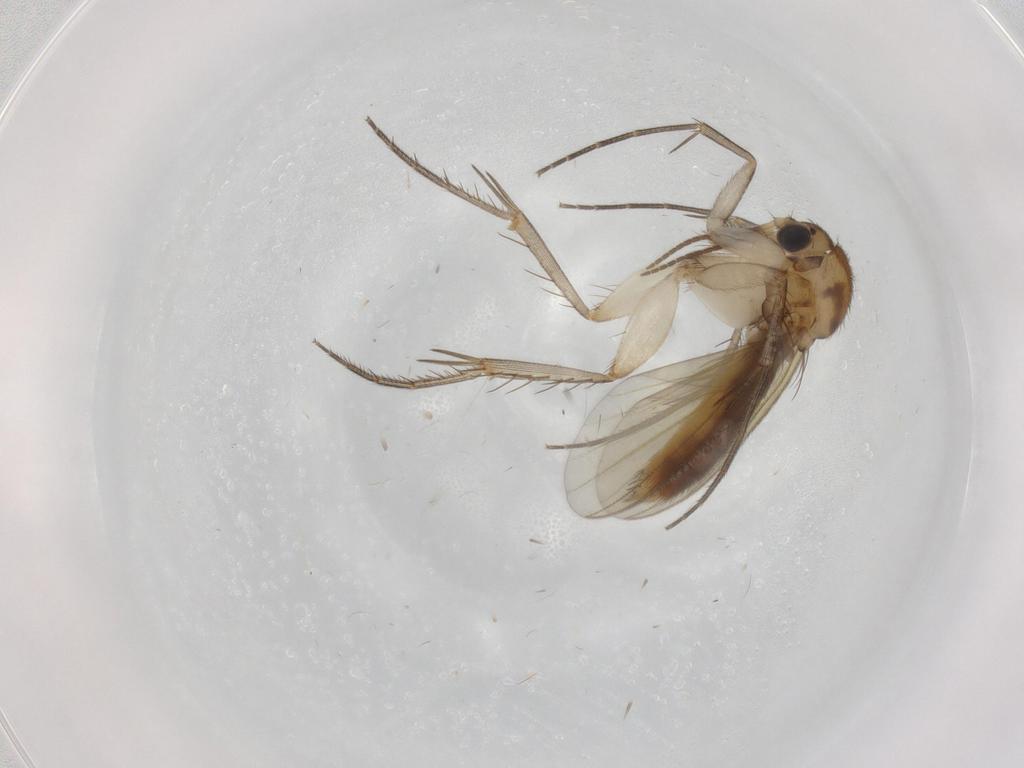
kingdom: Animalia
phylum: Arthropoda
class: Insecta
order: Diptera
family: Mycetophilidae
